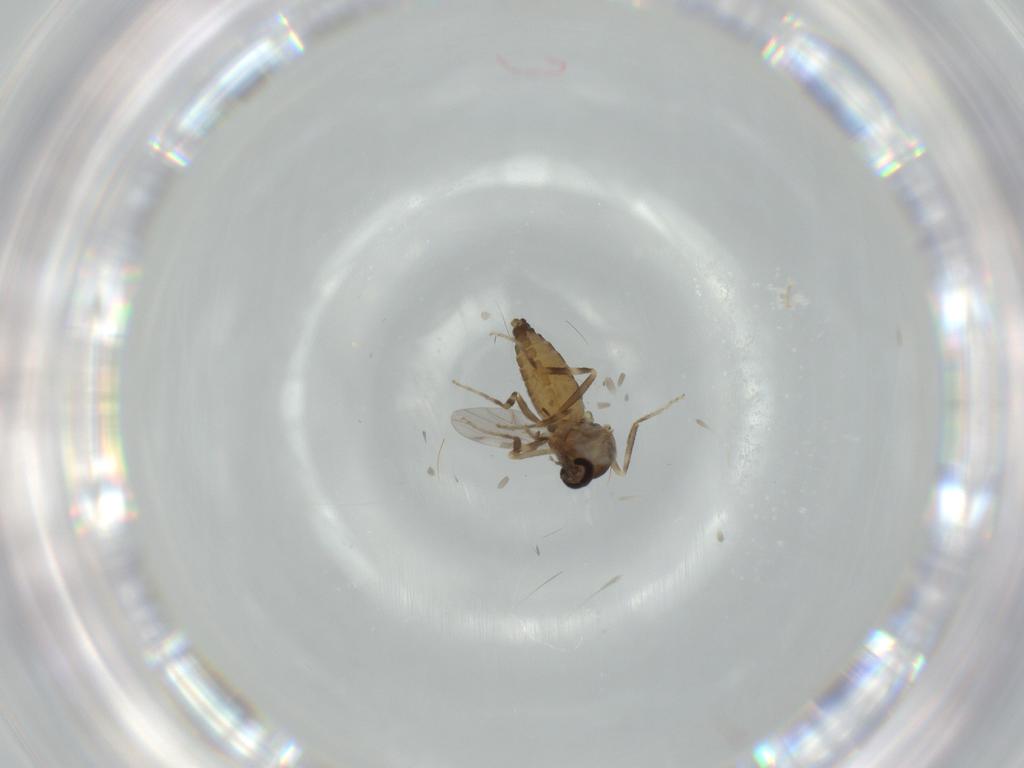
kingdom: Animalia
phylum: Arthropoda
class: Insecta
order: Diptera
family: Ceratopogonidae
